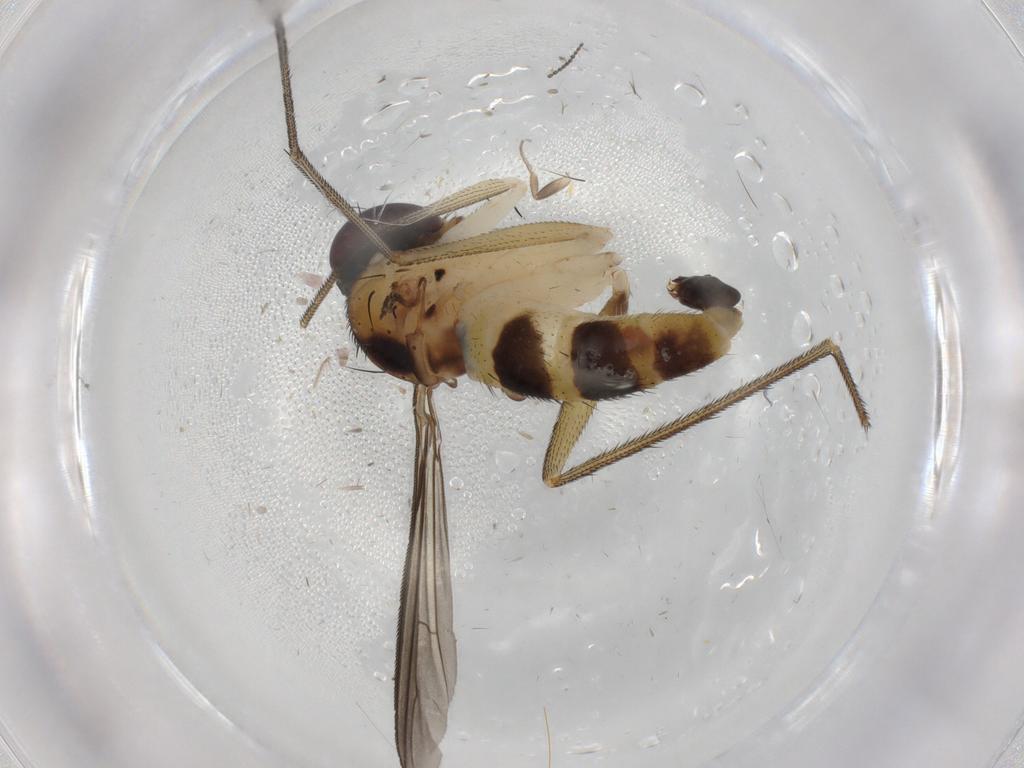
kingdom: Animalia
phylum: Arthropoda
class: Insecta
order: Diptera
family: Dolichopodidae
